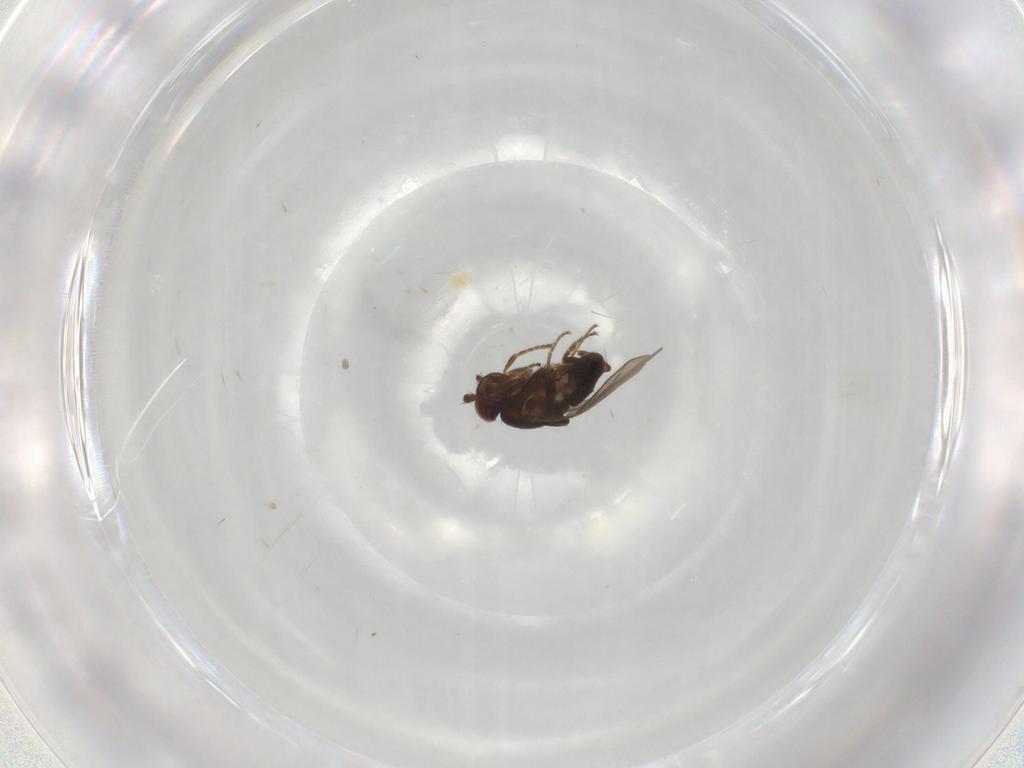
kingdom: Animalia
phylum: Arthropoda
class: Insecta
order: Diptera
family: Sphaeroceridae
